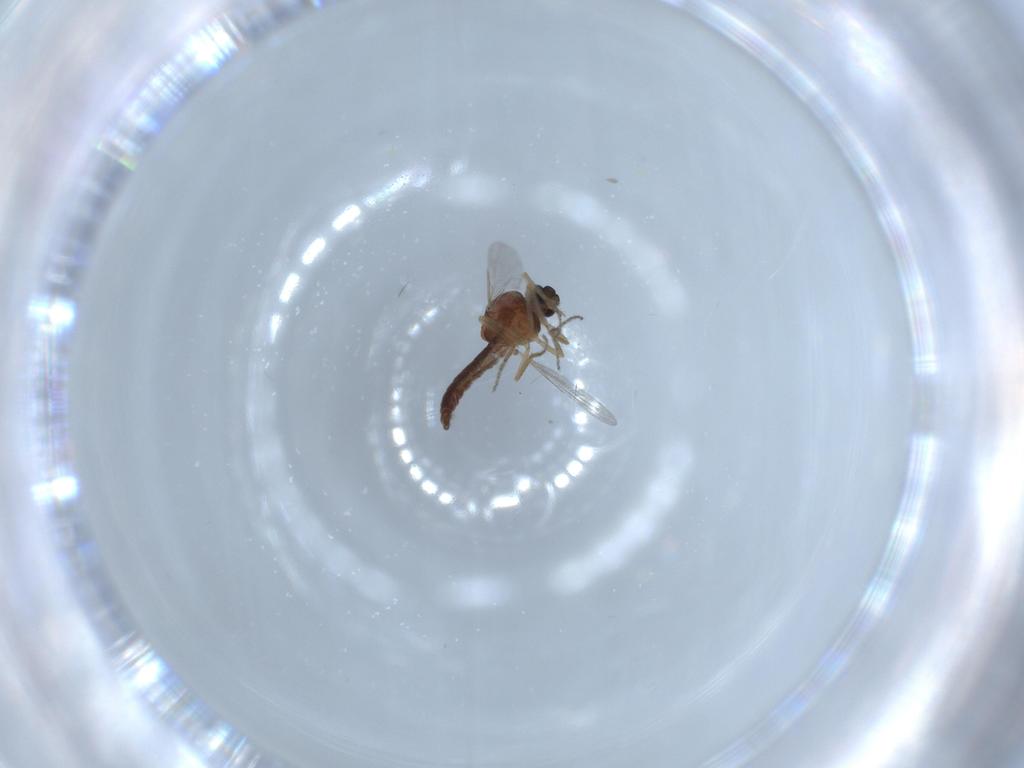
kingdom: Animalia
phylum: Arthropoda
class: Insecta
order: Diptera
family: Ceratopogonidae
